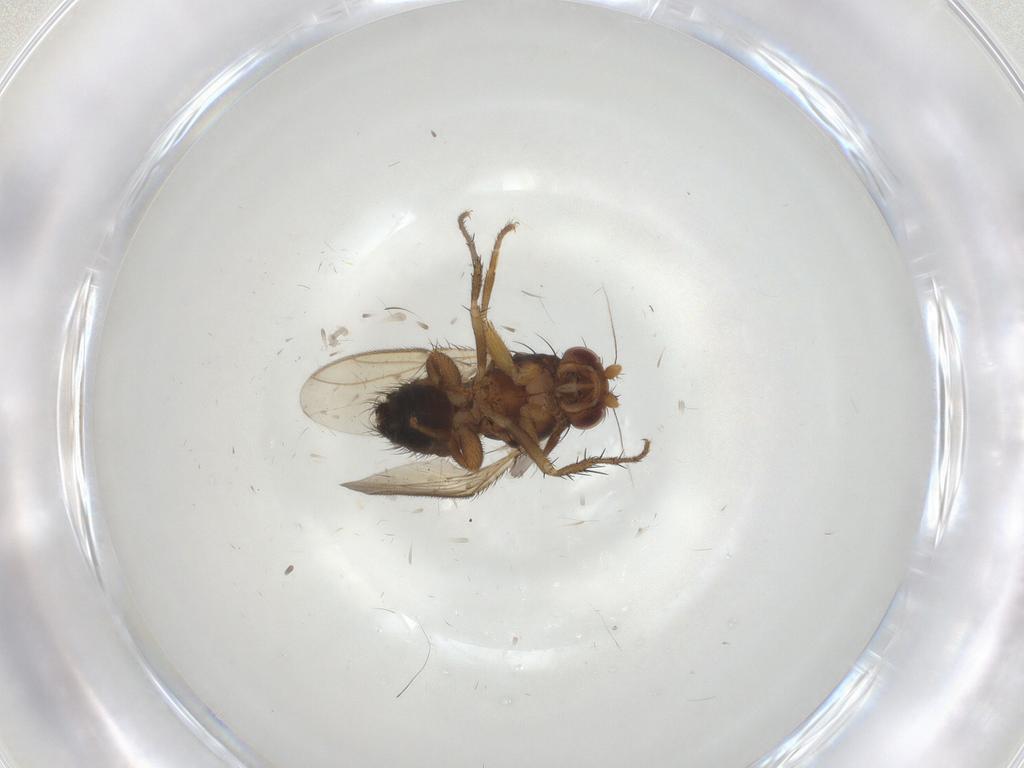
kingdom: Animalia
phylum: Arthropoda
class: Insecta
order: Diptera
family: Sphaeroceridae
